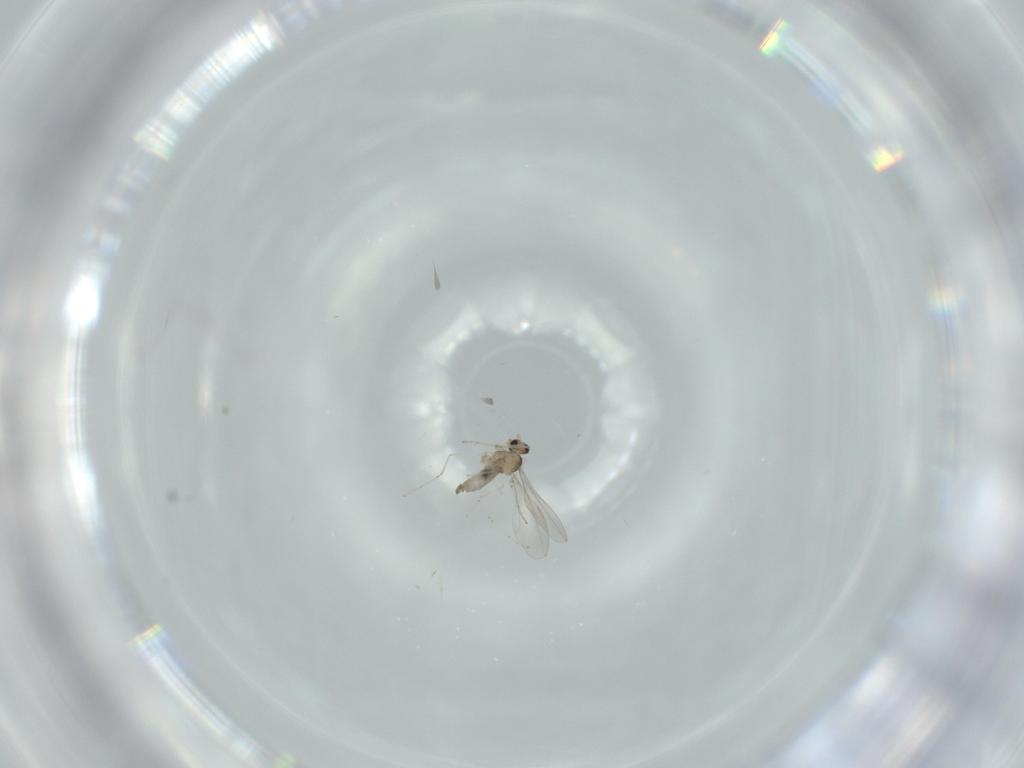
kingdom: Animalia
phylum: Arthropoda
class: Insecta
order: Diptera
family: Cecidomyiidae
